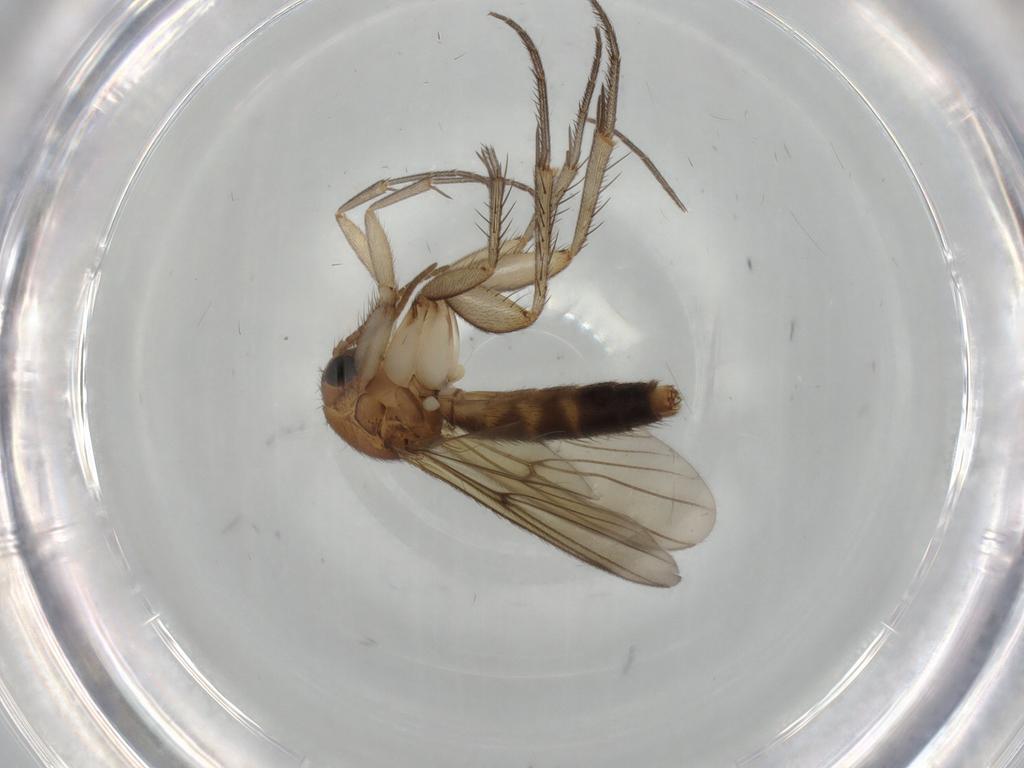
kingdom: Animalia
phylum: Arthropoda
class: Insecta
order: Diptera
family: Mycetophilidae
